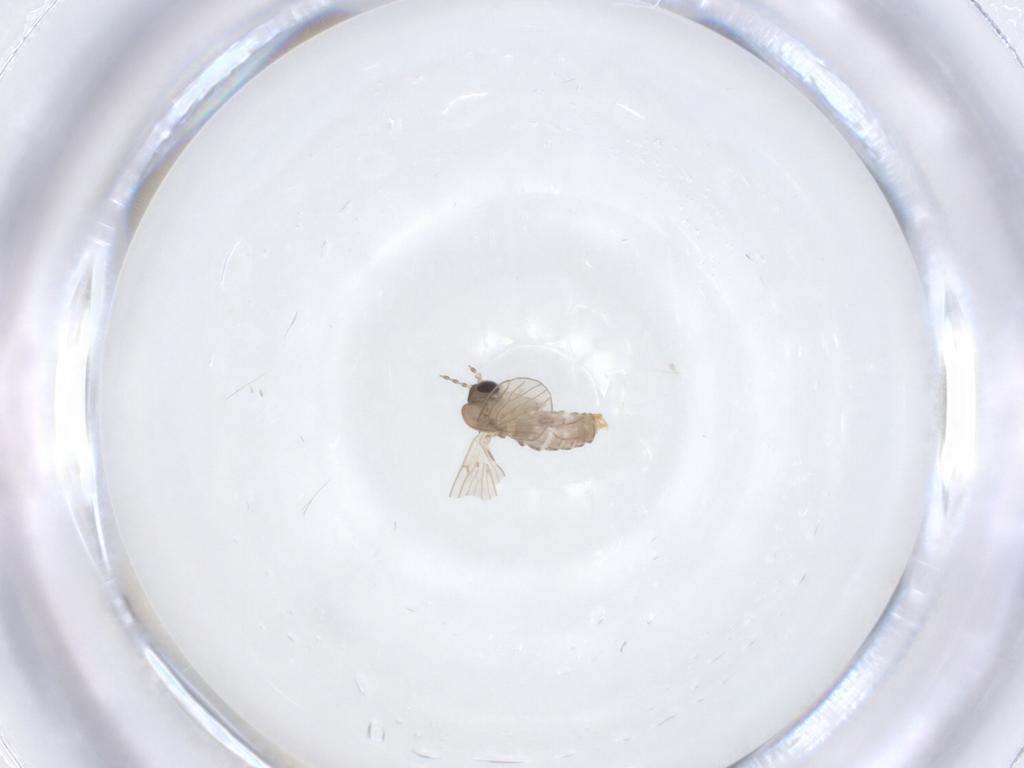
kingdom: Animalia
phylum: Arthropoda
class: Insecta
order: Diptera
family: Psychodidae
